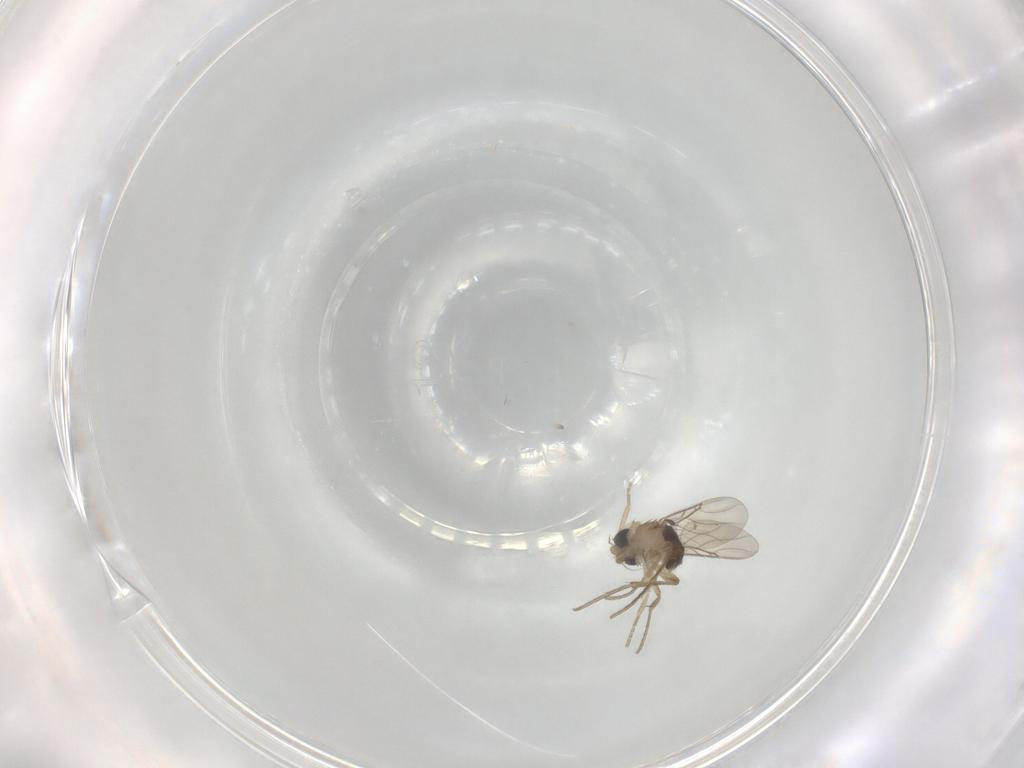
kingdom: Animalia
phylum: Arthropoda
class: Insecta
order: Diptera
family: Phoridae
